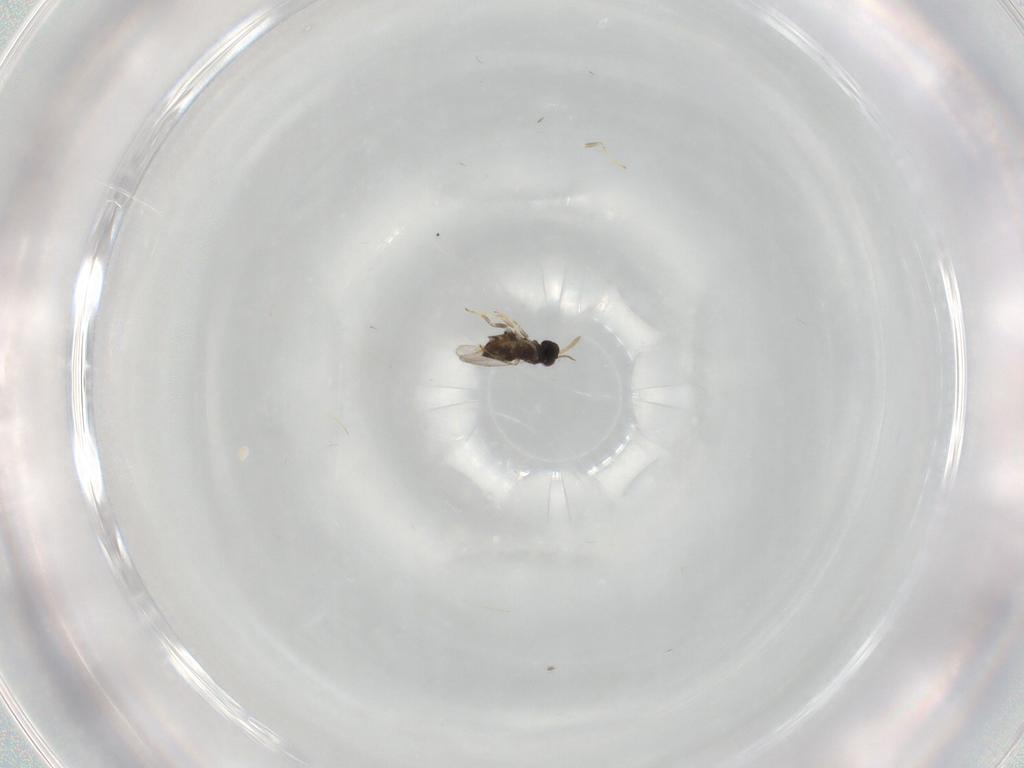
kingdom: Animalia
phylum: Arthropoda
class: Insecta
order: Hymenoptera
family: Aphelinidae
